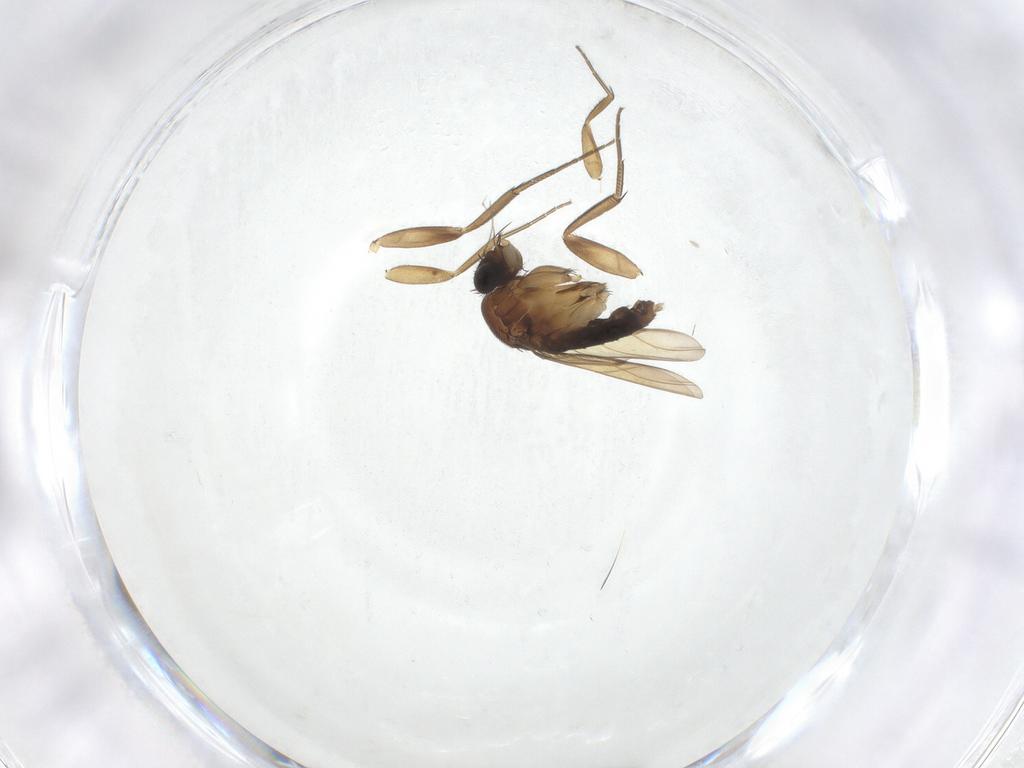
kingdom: Animalia
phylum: Arthropoda
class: Insecta
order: Diptera
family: Phoridae
